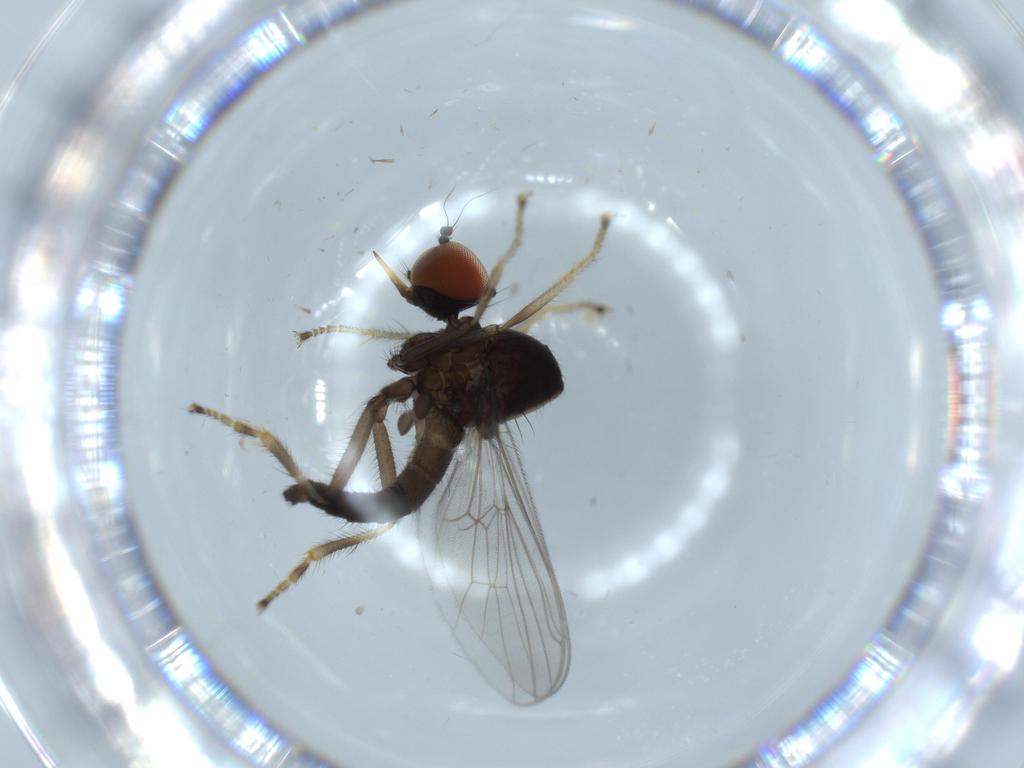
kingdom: Animalia
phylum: Arthropoda
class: Insecta
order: Diptera
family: Hybotidae
